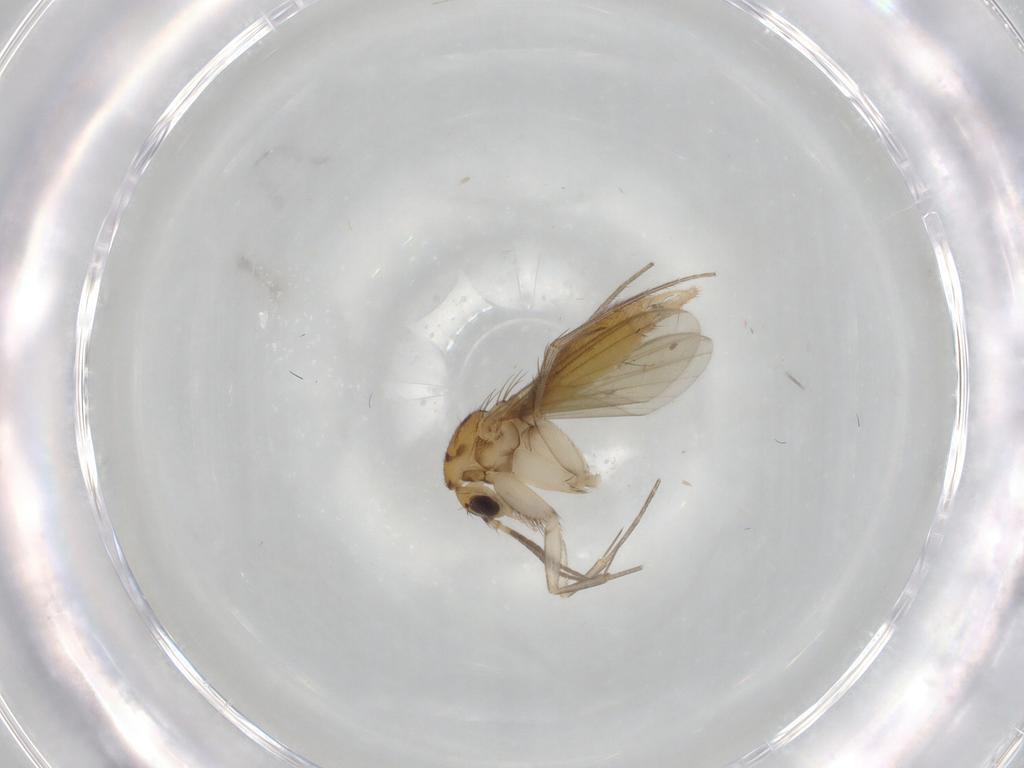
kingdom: Animalia
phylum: Arthropoda
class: Insecta
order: Diptera
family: Mycetophilidae
